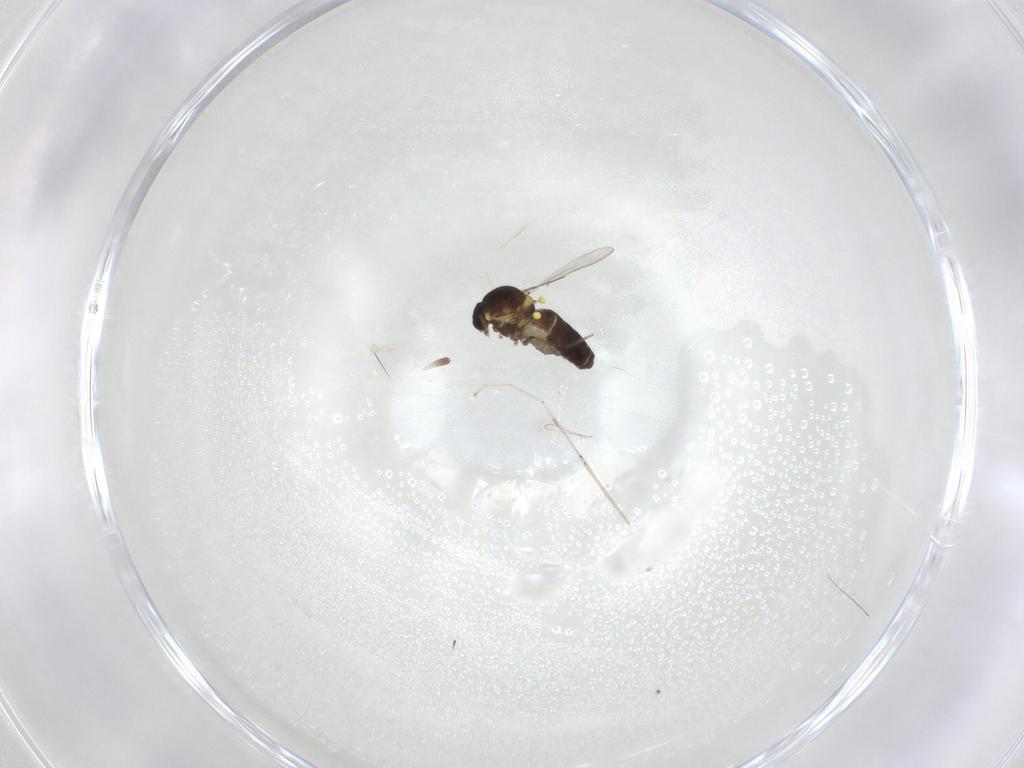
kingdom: Animalia
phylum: Arthropoda
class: Insecta
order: Diptera
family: Ceratopogonidae
